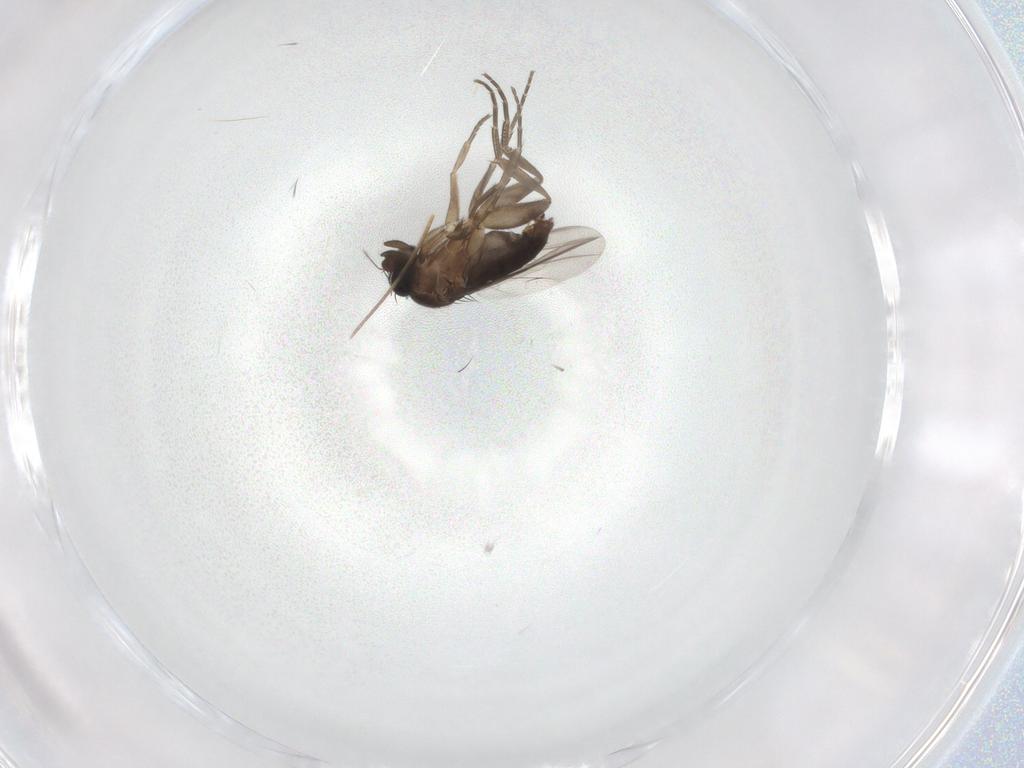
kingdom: Animalia
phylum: Arthropoda
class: Insecta
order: Diptera
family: Phoridae
